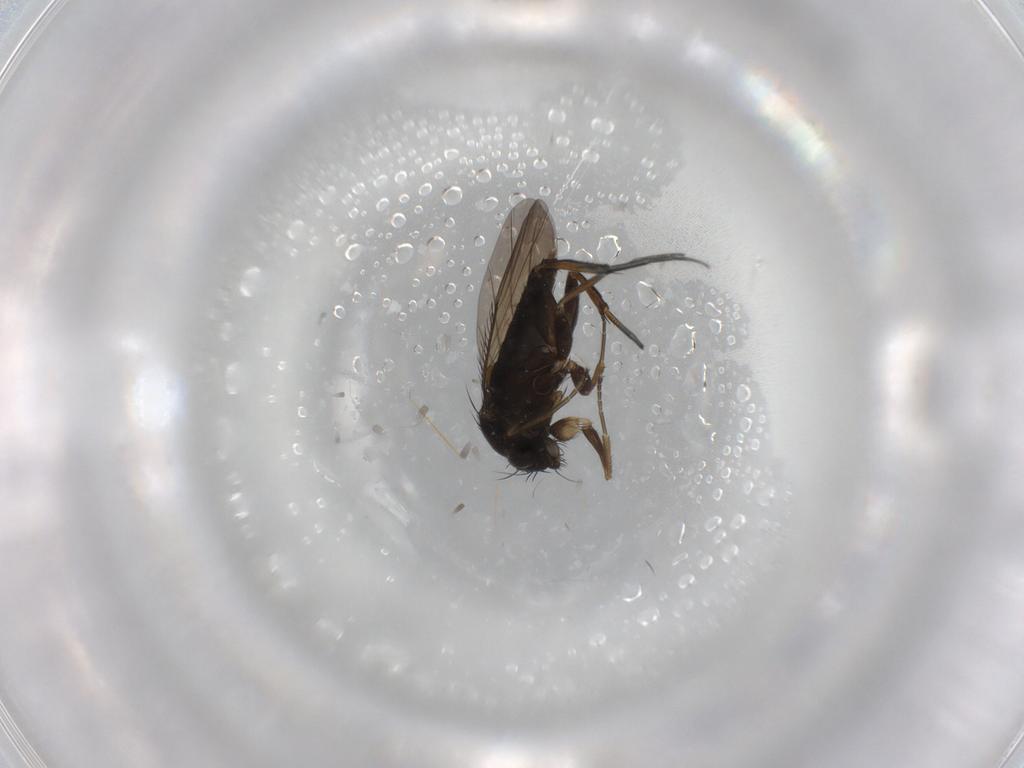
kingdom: Animalia
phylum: Arthropoda
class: Insecta
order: Diptera
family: Phoridae
